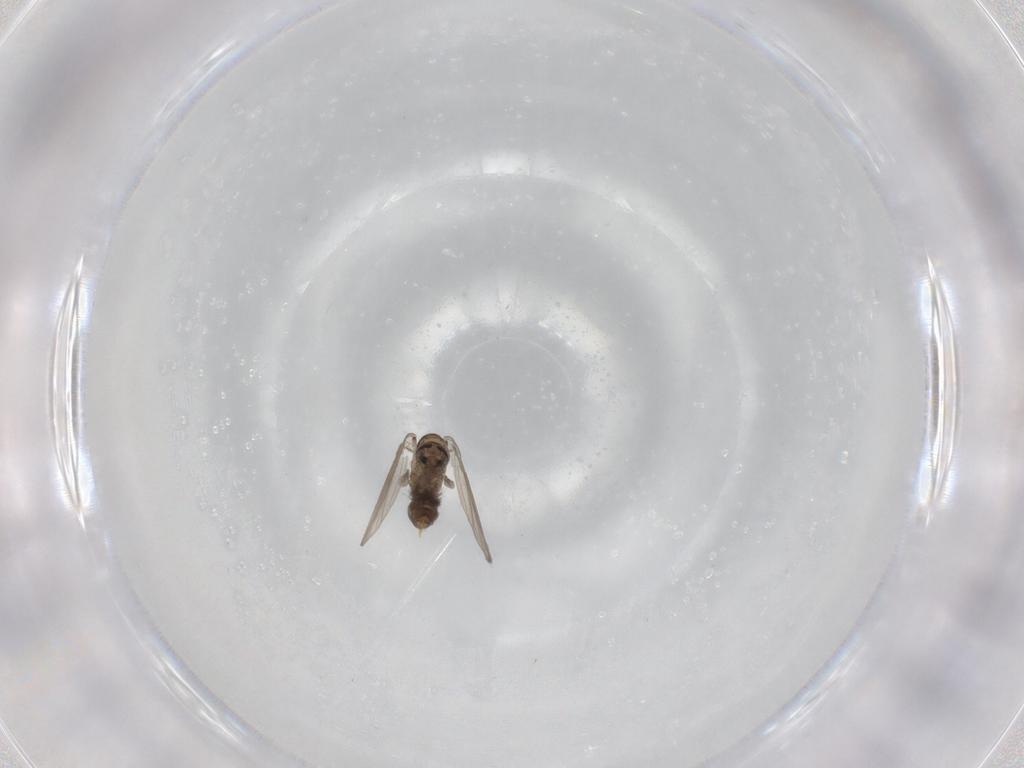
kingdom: Animalia
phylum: Arthropoda
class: Insecta
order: Diptera
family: Psychodidae
